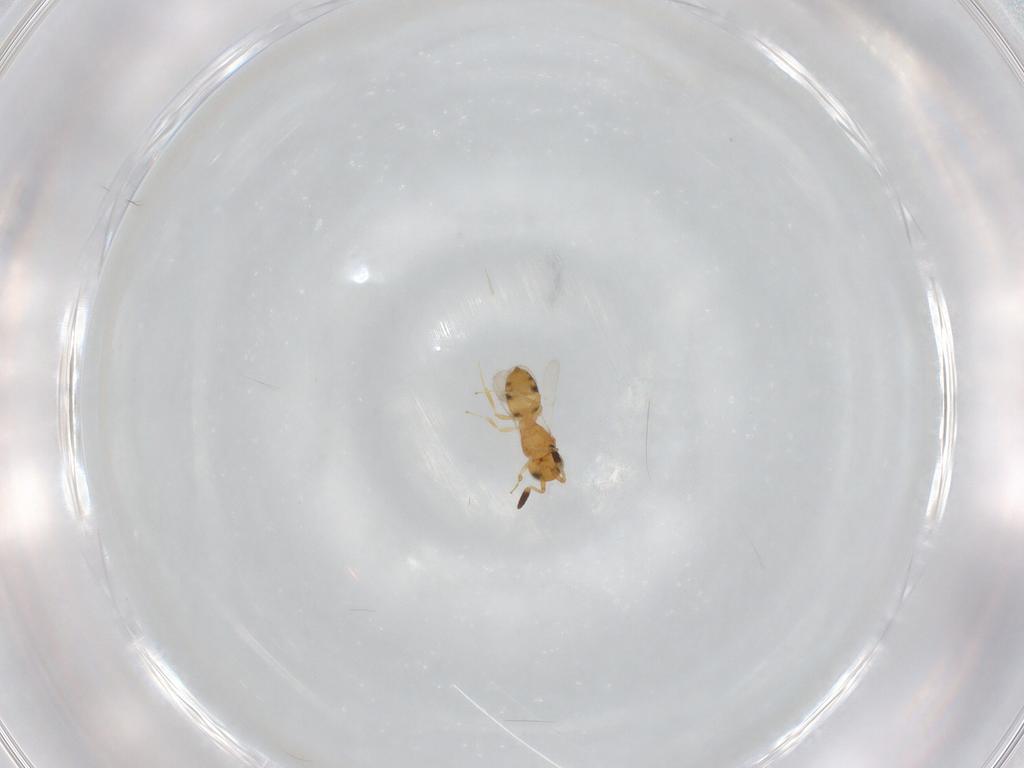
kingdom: Animalia
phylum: Arthropoda
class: Insecta
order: Hymenoptera
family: Scelionidae
